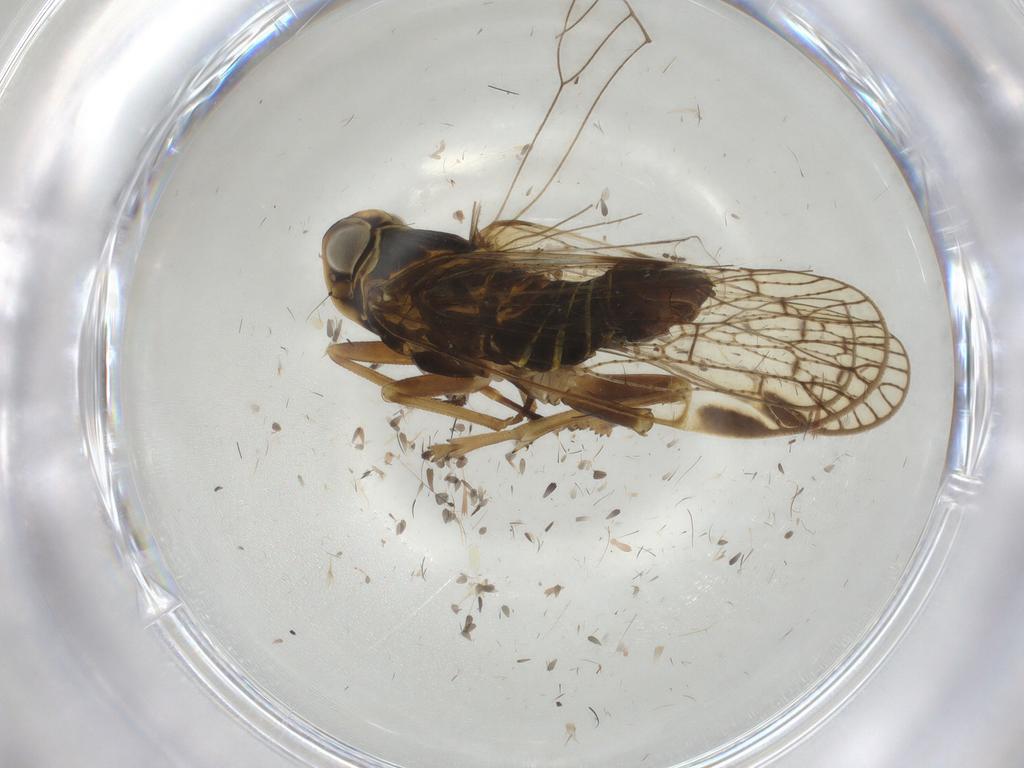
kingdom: Animalia
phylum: Arthropoda
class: Insecta
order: Hemiptera
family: Cixiidae
